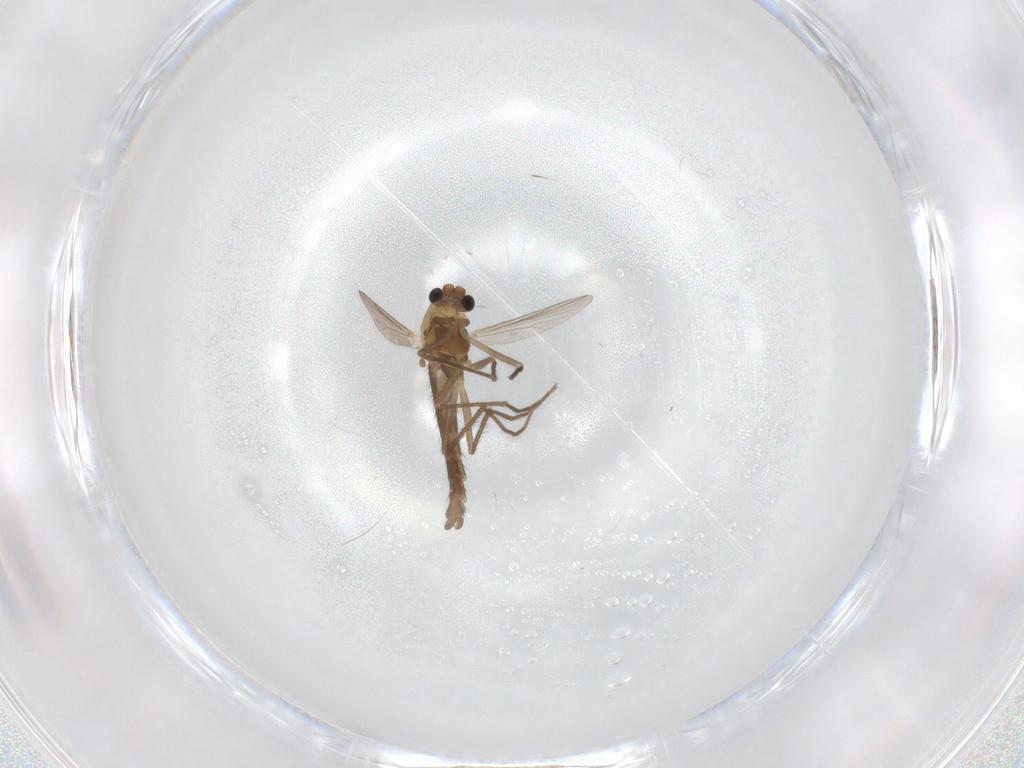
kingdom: Animalia
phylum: Arthropoda
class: Insecta
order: Diptera
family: Chironomidae
